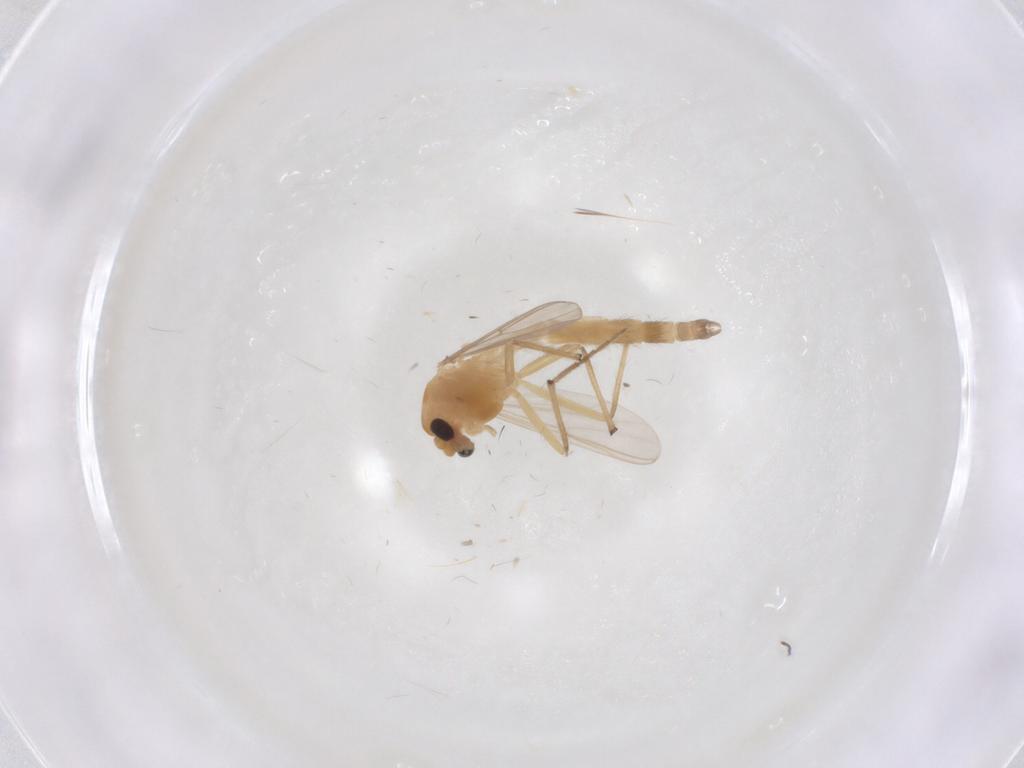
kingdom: Animalia
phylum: Arthropoda
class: Insecta
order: Diptera
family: Chironomidae
